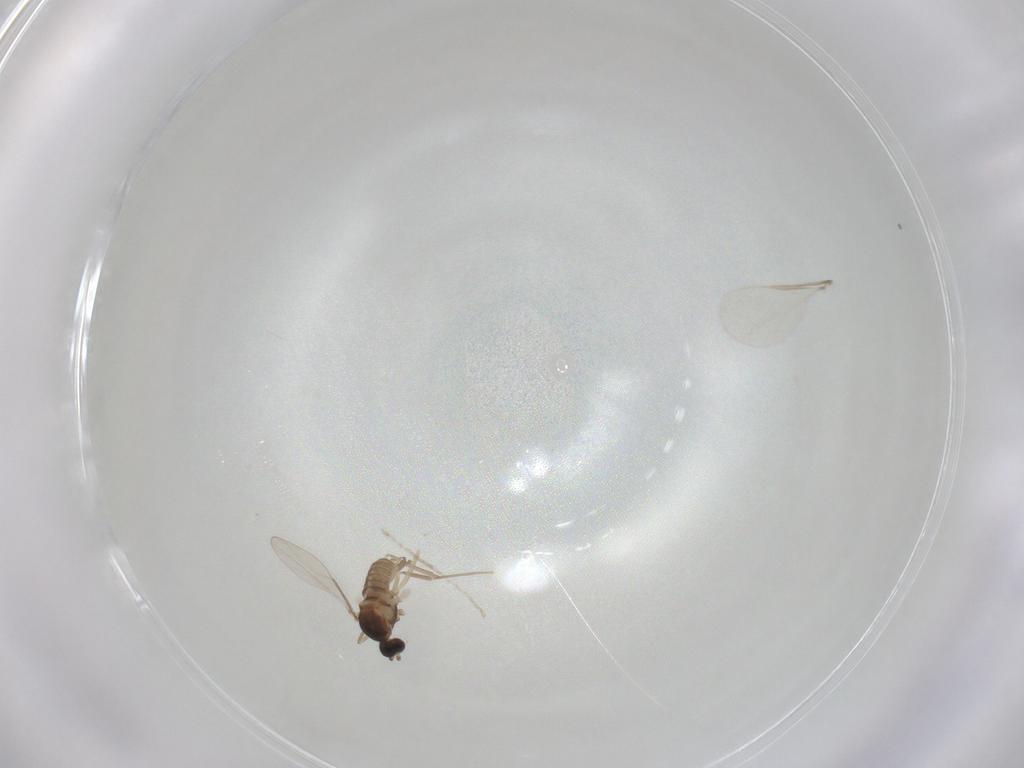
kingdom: Animalia
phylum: Arthropoda
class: Insecta
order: Diptera
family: Cecidomyiidae
